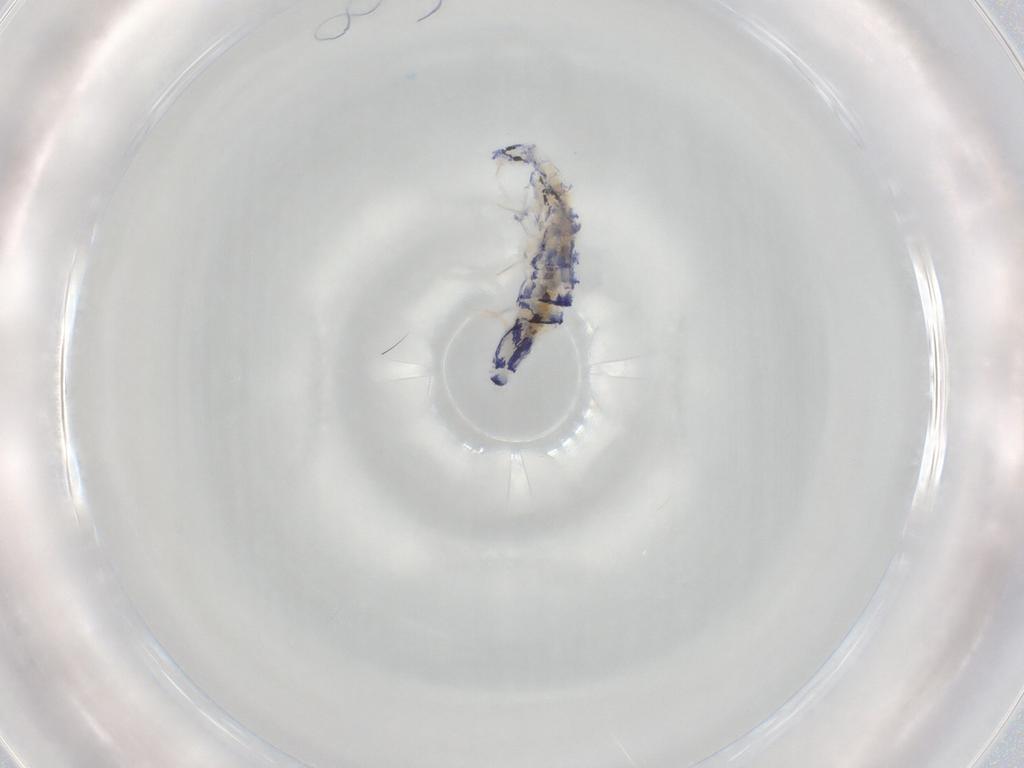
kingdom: Animalia
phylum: Arthropoda
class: Collembola
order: Entomobryomorpha
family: Entomobryidae
